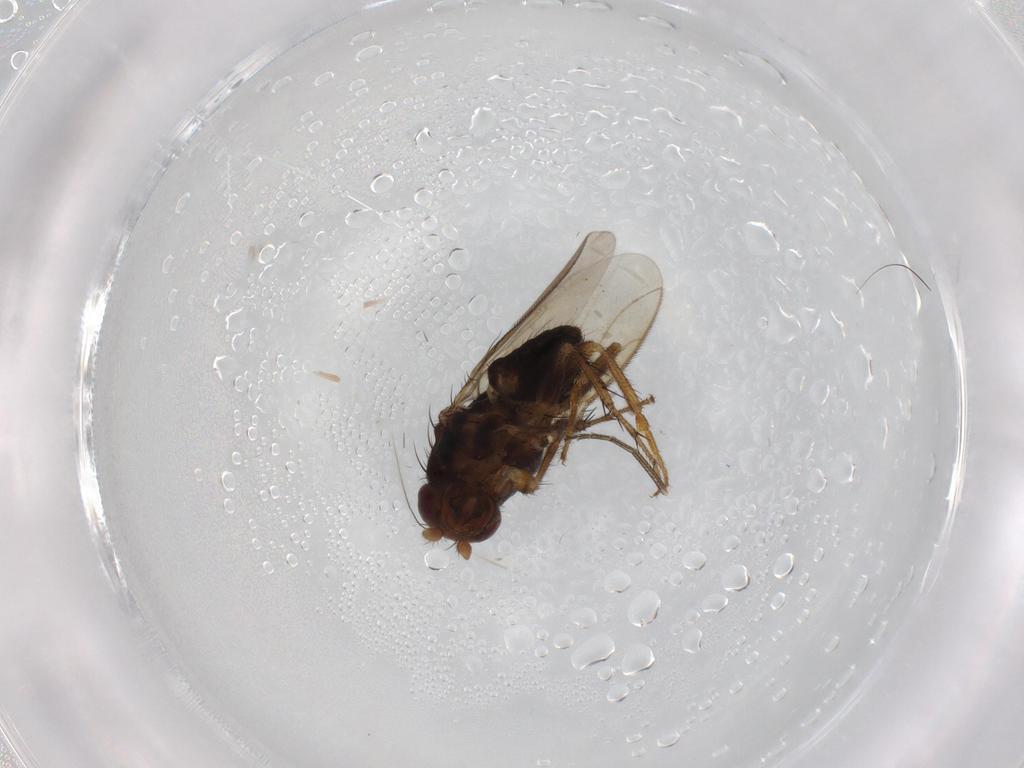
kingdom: Animalia
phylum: Arthropoda
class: Insecta
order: Diptera
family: Sphaeroceridae
